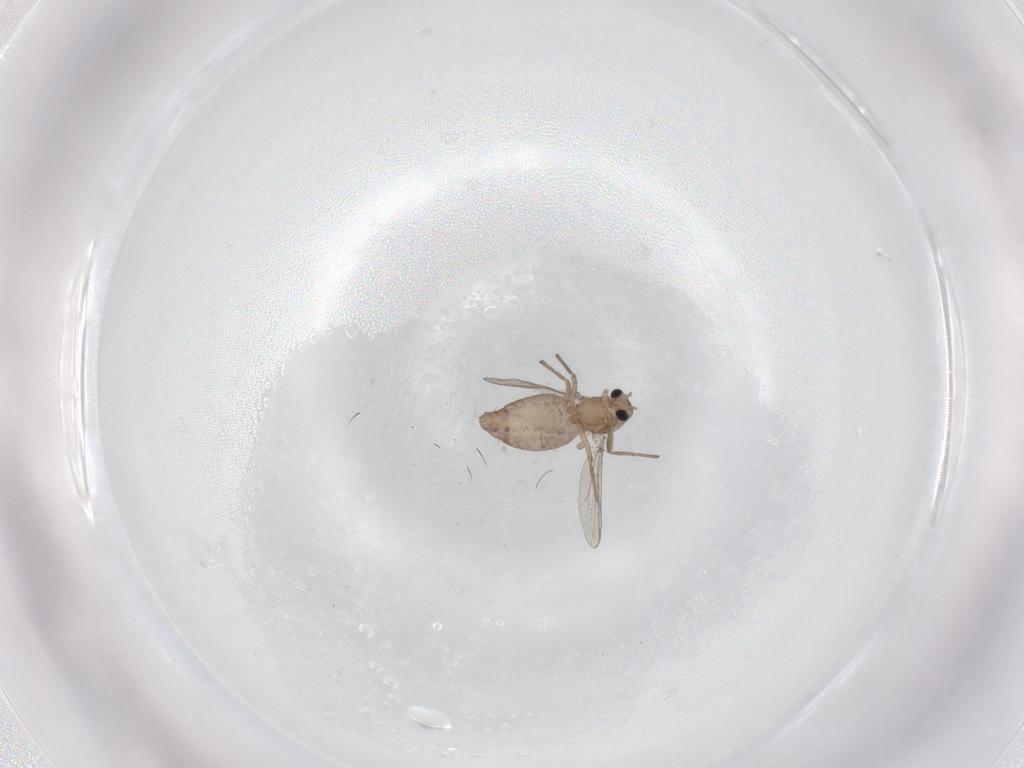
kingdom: Animalia
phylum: Arthropoda
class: Insecta
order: Diptera
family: Chironomidae
